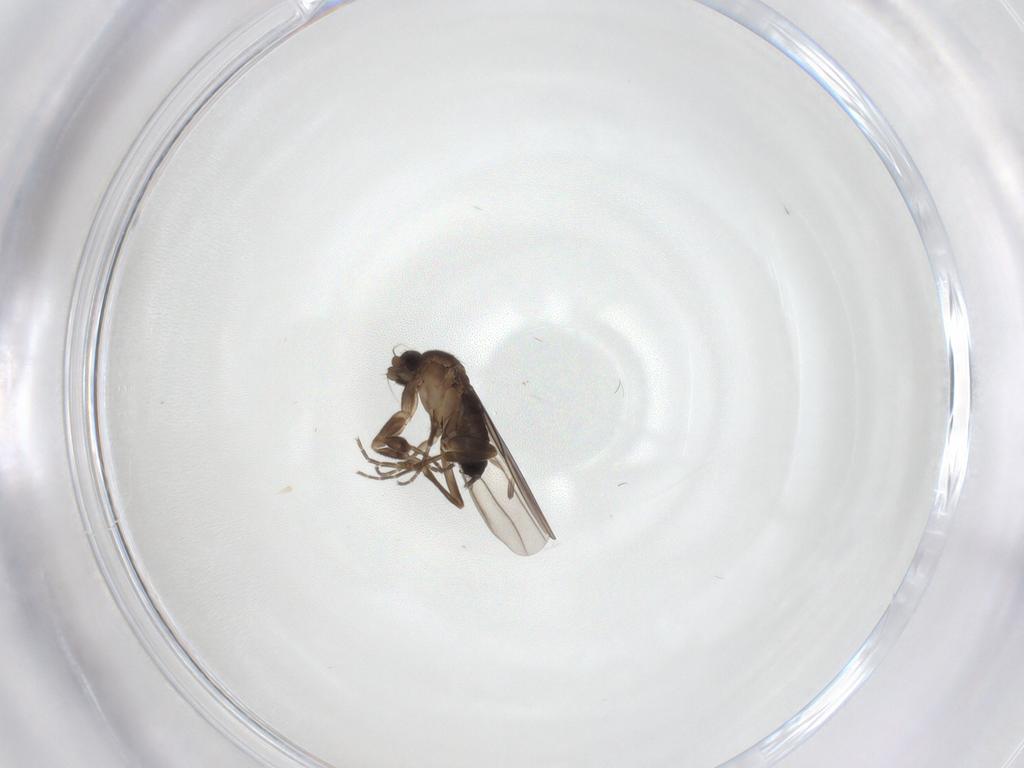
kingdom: Animalia
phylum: Arthropoda
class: Insecta
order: Diptera
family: Phoridae
